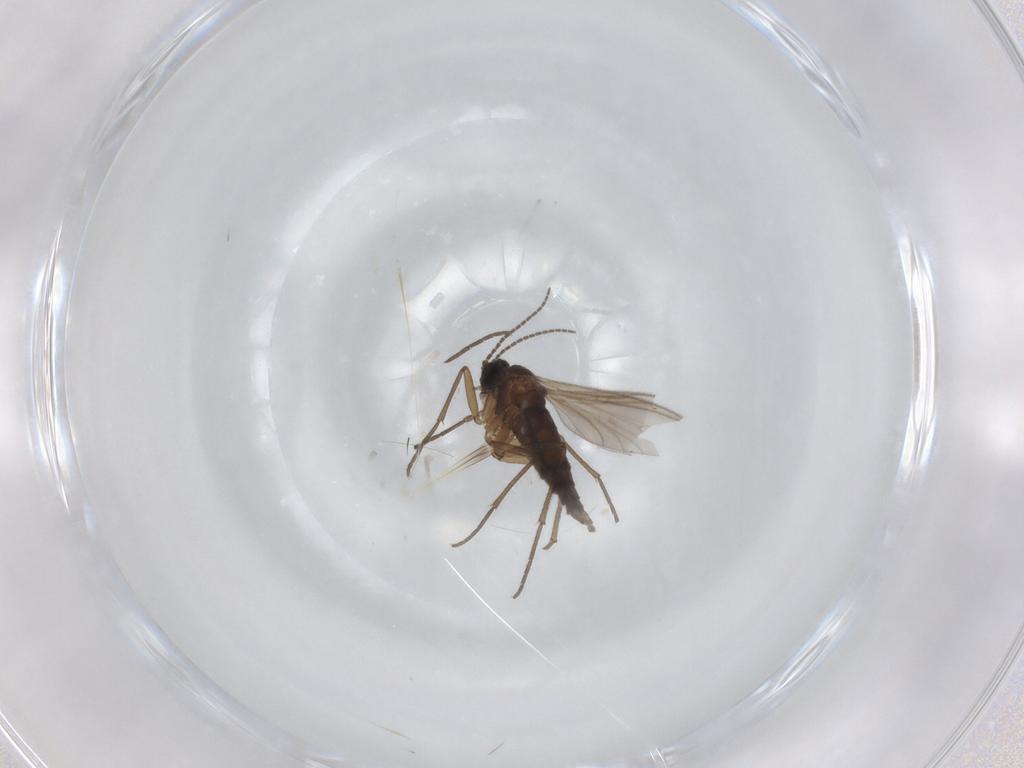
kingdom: Animalia
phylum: Arthropoda
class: Insecta
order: Diptera
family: Sciaridae
